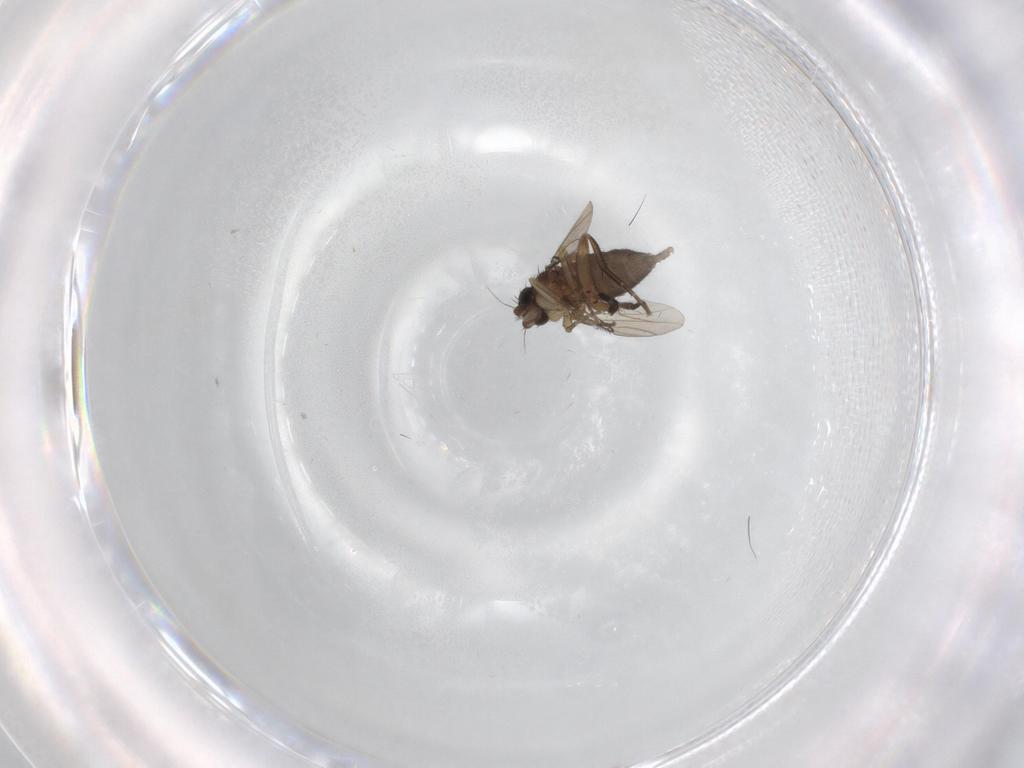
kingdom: Animalia
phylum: Arthropoda
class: Insecta
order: Diptera
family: Phoridae
